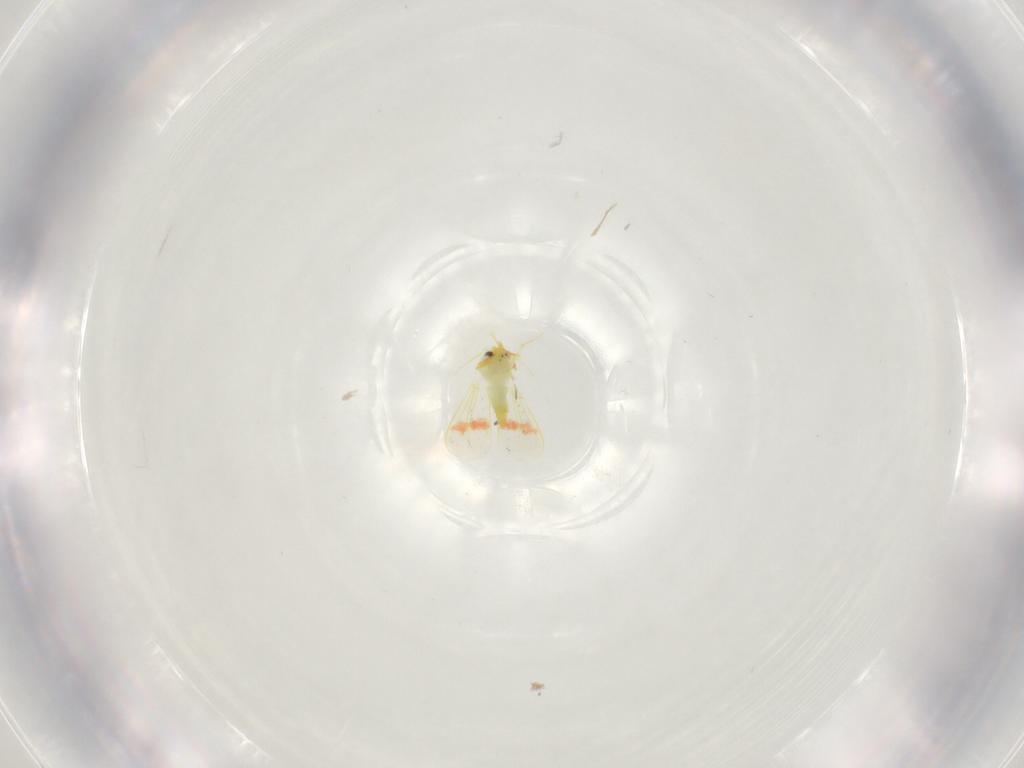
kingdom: Animalia
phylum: Arthropoda
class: Insecta
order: Hemiptera
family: Aleyrodidae
